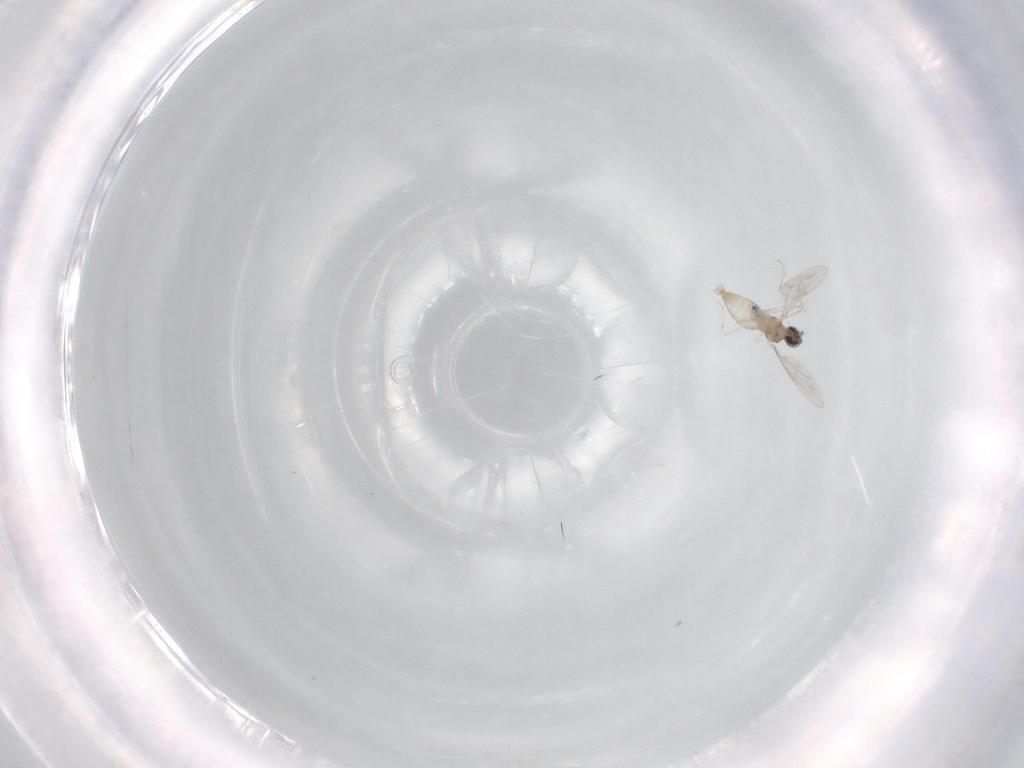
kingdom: Animalia
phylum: Arthropoda
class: Insecta
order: Diptera
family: Cecidomyiidae
